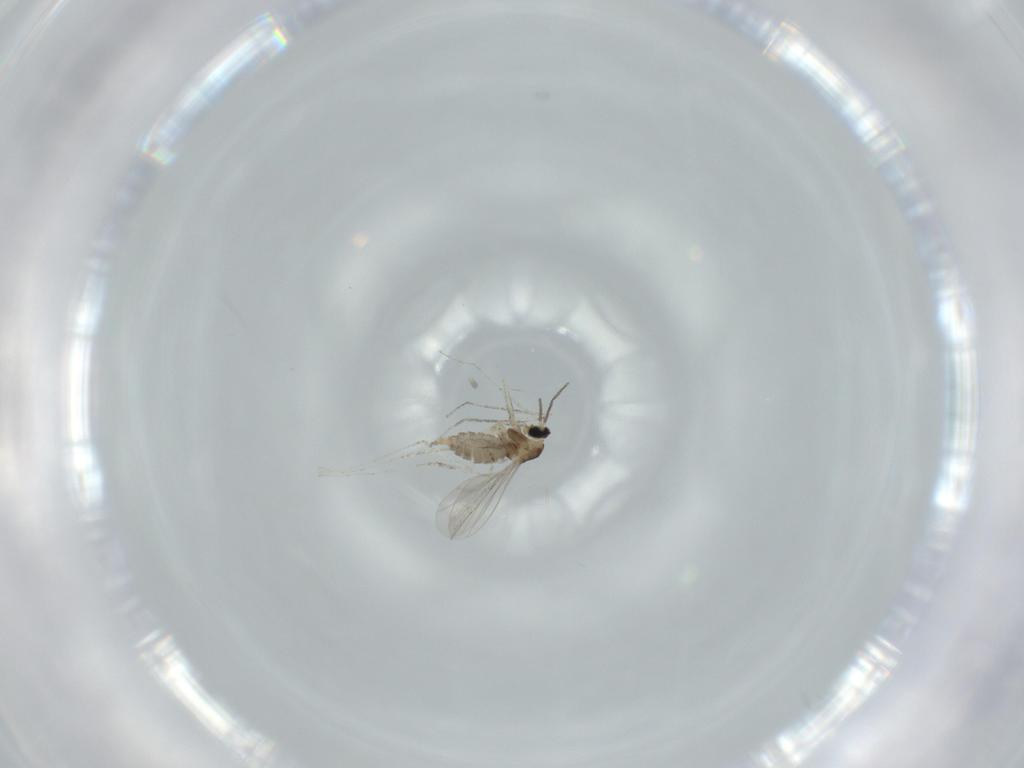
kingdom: Animalia
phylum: Arthropoda
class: Insecta
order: Diptera
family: Cecidomyiidae
